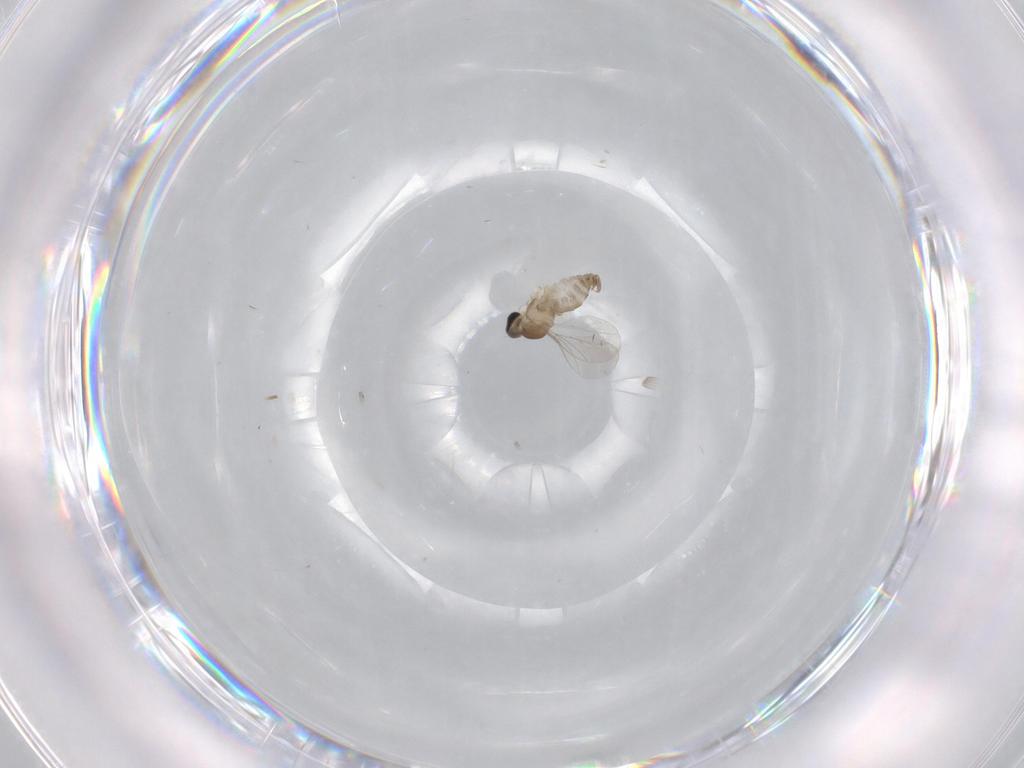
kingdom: Animalia
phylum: Arthropoda
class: Insecta
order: Diptera
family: Cecidomyiidae
